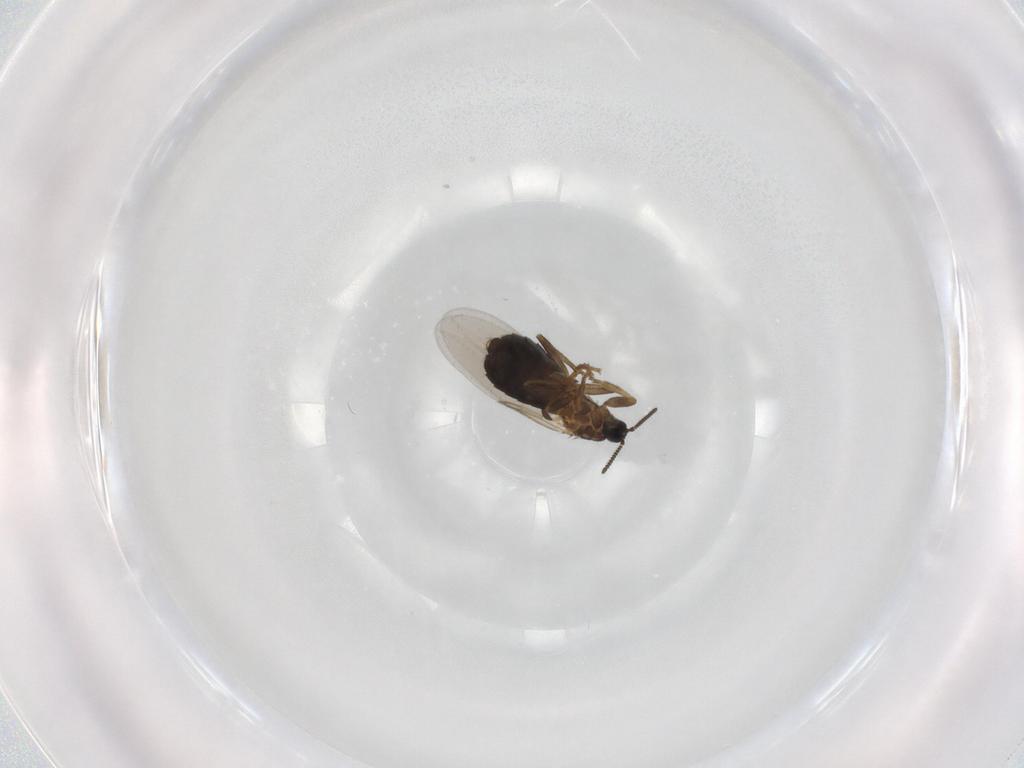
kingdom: Animalia
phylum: Arthropoda
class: Insecta
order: Diptera
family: Scatopsidae
